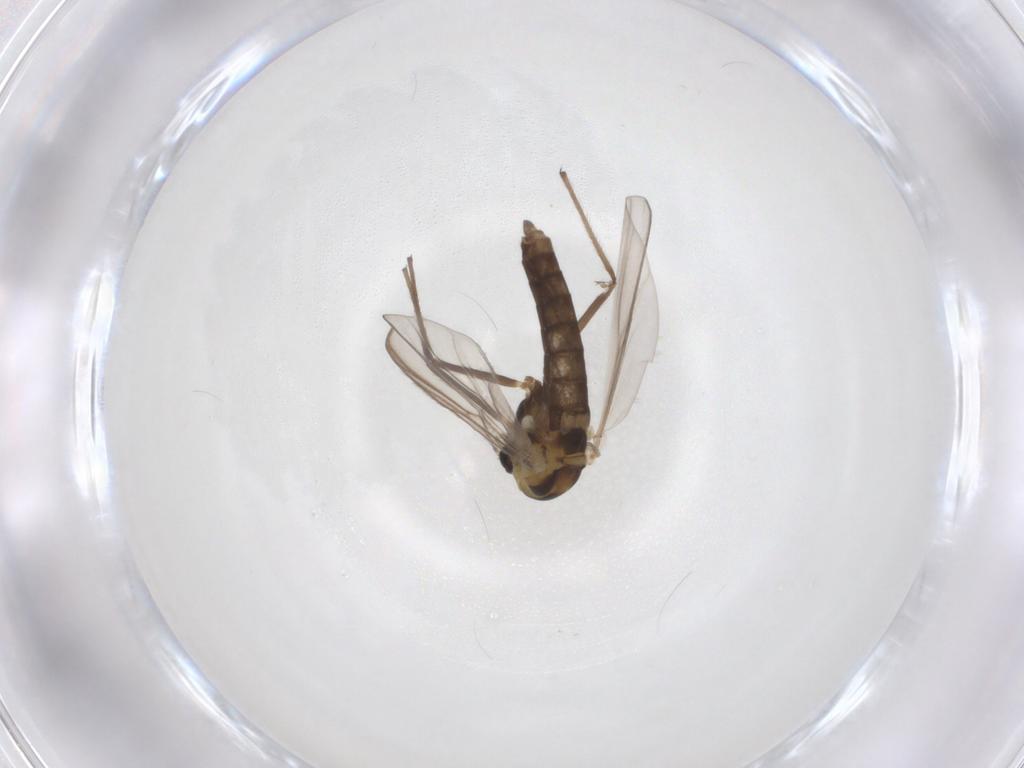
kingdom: Animalia
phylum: Arthropoda
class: Insecta
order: Diptera
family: Chironomidae
